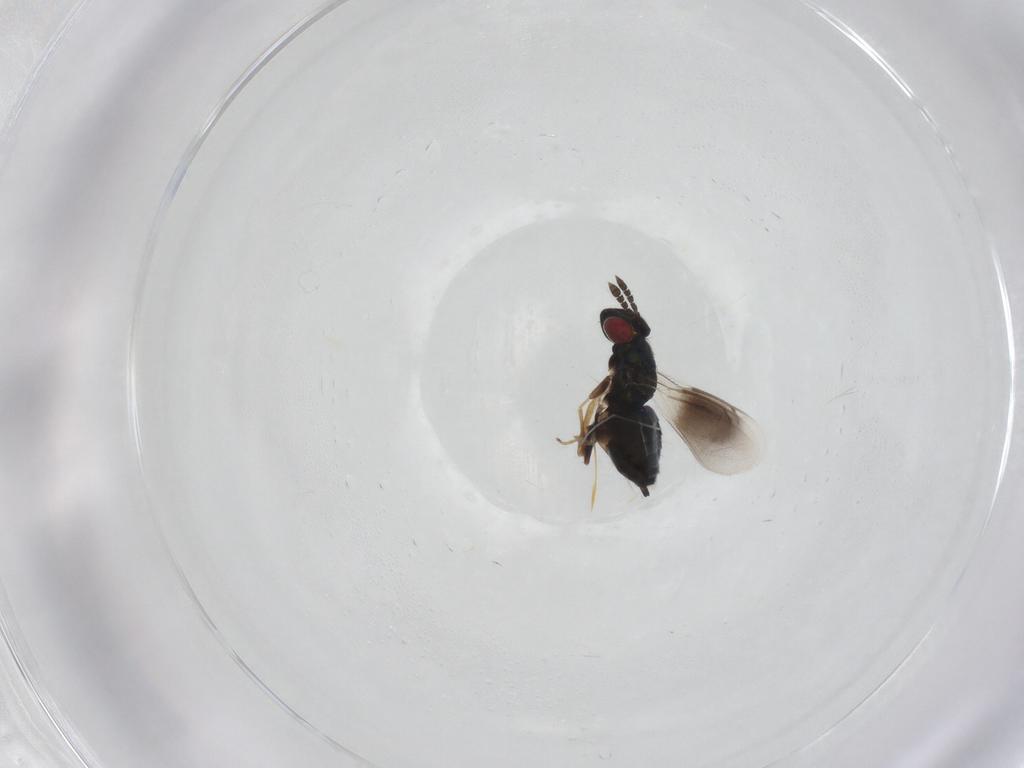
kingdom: Animalia
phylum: Arthropoda
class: Insecta
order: Hymenoptera
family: Eulophidae
